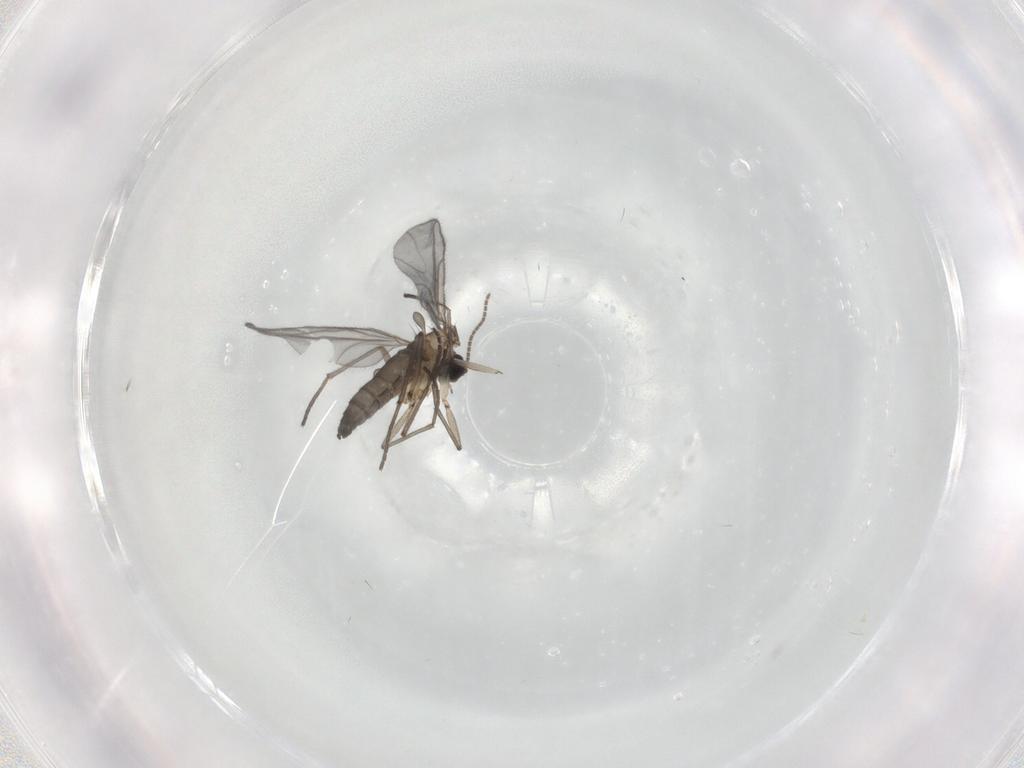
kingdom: Animalia
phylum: Arthropoda
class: Insecta
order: Diptera
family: Sciaridae
